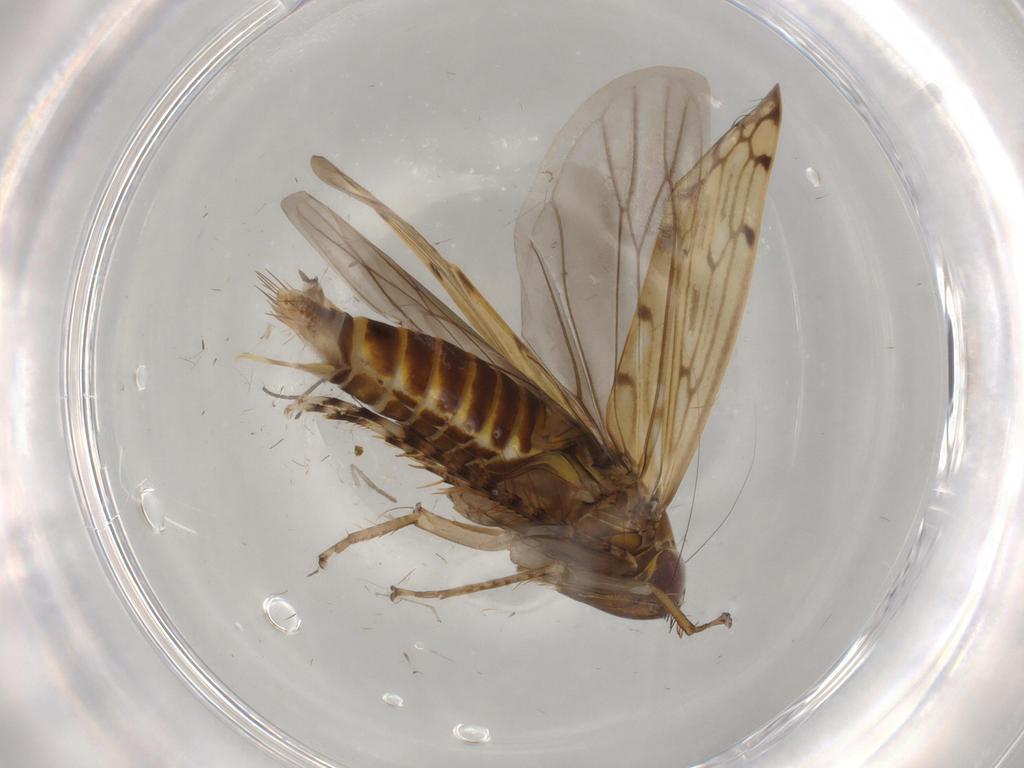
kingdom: Animalia
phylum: Arthropoda
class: Insecta
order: Hemiptera
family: Cicadellidae
